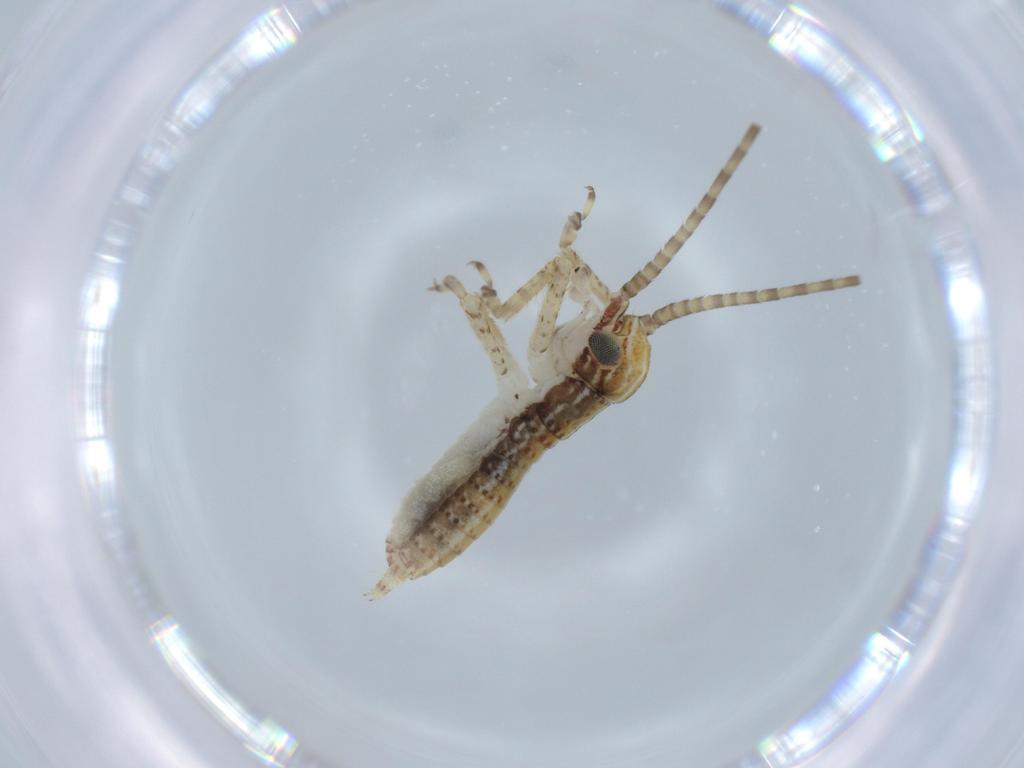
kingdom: Animalia
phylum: Arthropoda
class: Insecta
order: Orthoptera
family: Gryllidae
